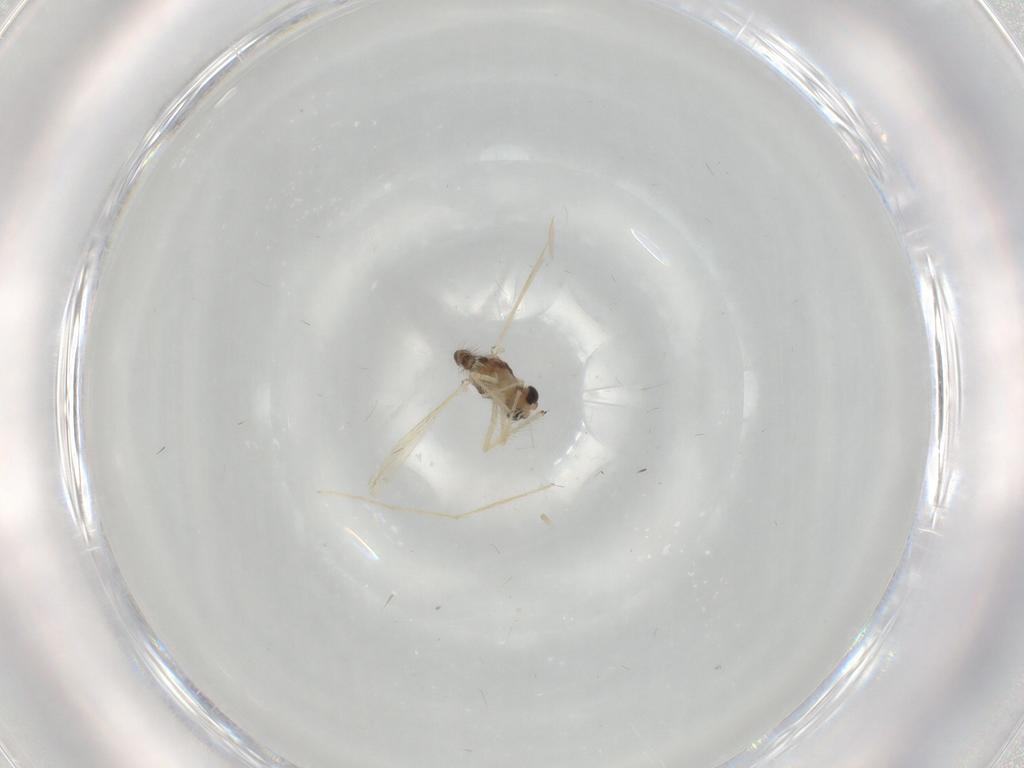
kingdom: Animalia
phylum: Arthropoda
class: Insecta
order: Diptera
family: Chironomidae
